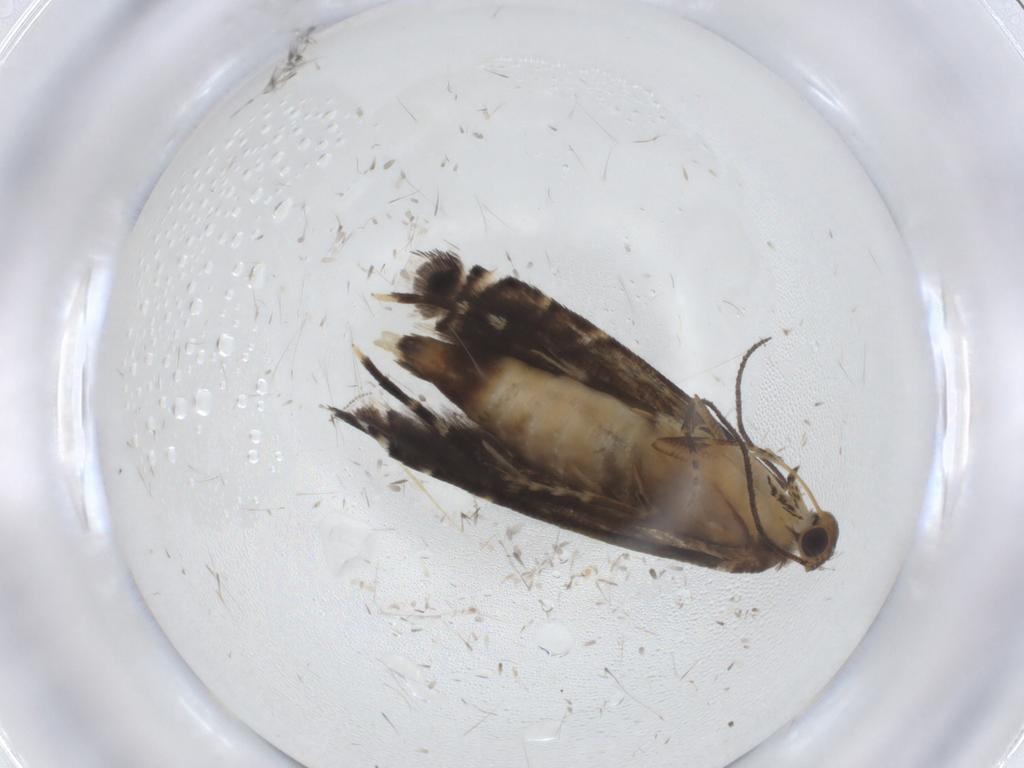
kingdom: Animalia
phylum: Arthropoda
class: Insecta
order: Lepidoptera
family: Glyphipterigidae
